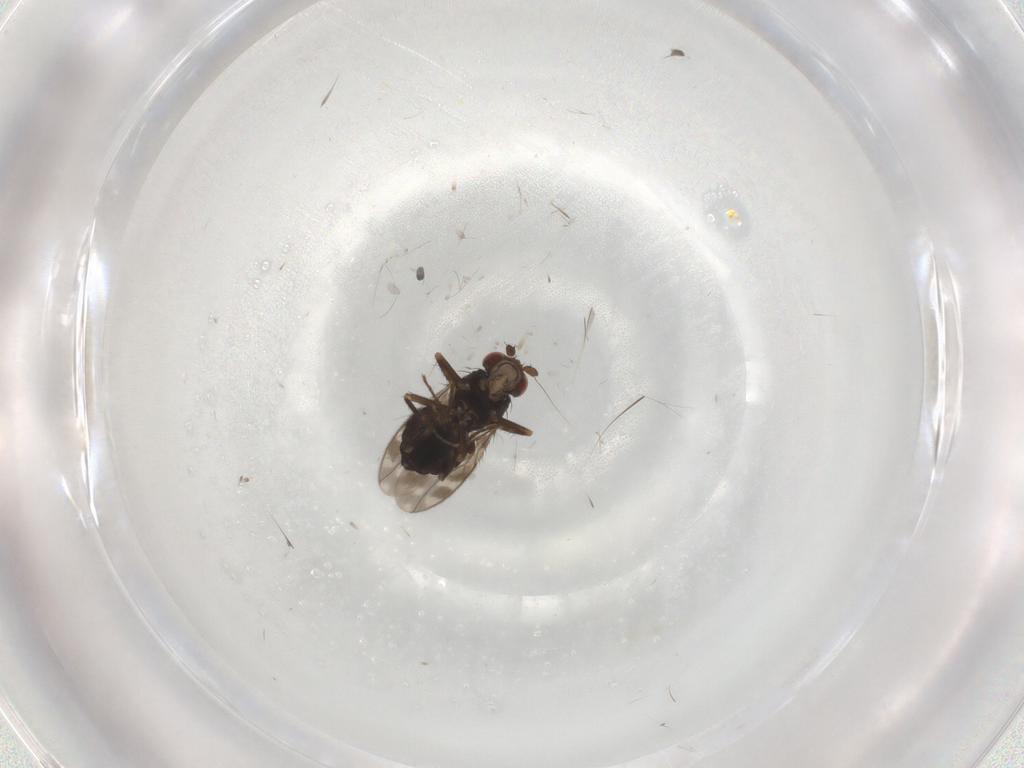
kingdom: Animalia
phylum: Arthropoda
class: Insecta
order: Diptera
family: Sphaeroceridae
